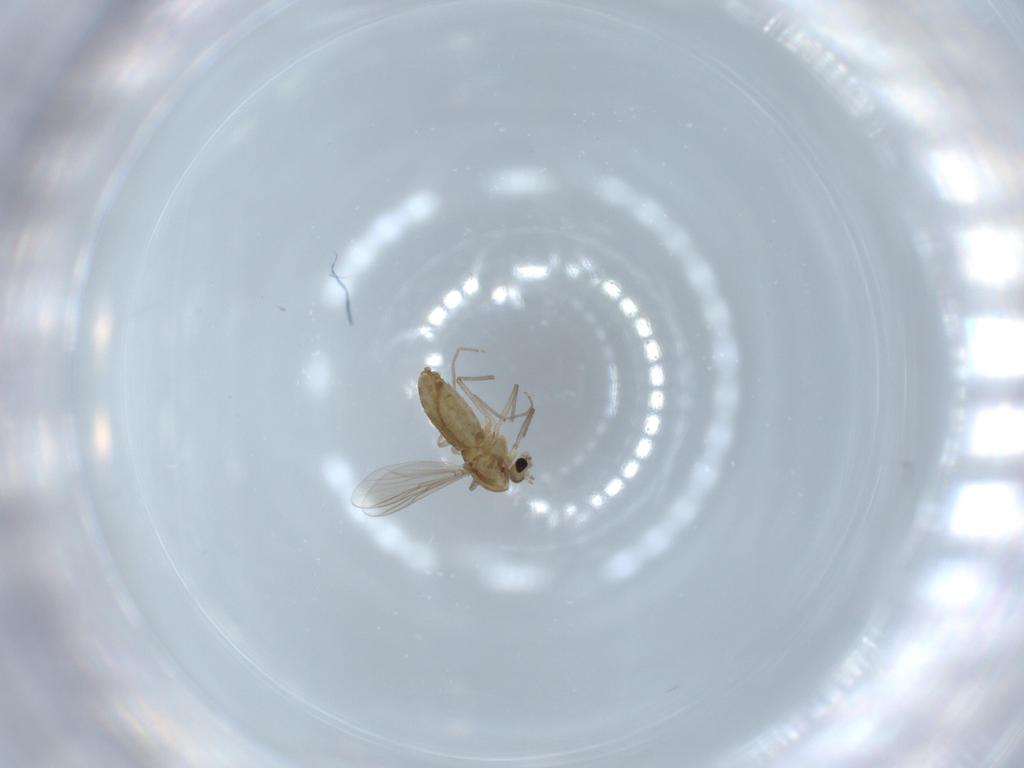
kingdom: Animalia
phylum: Arthropoda
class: Insecta
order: Diptera
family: Chironomidae
